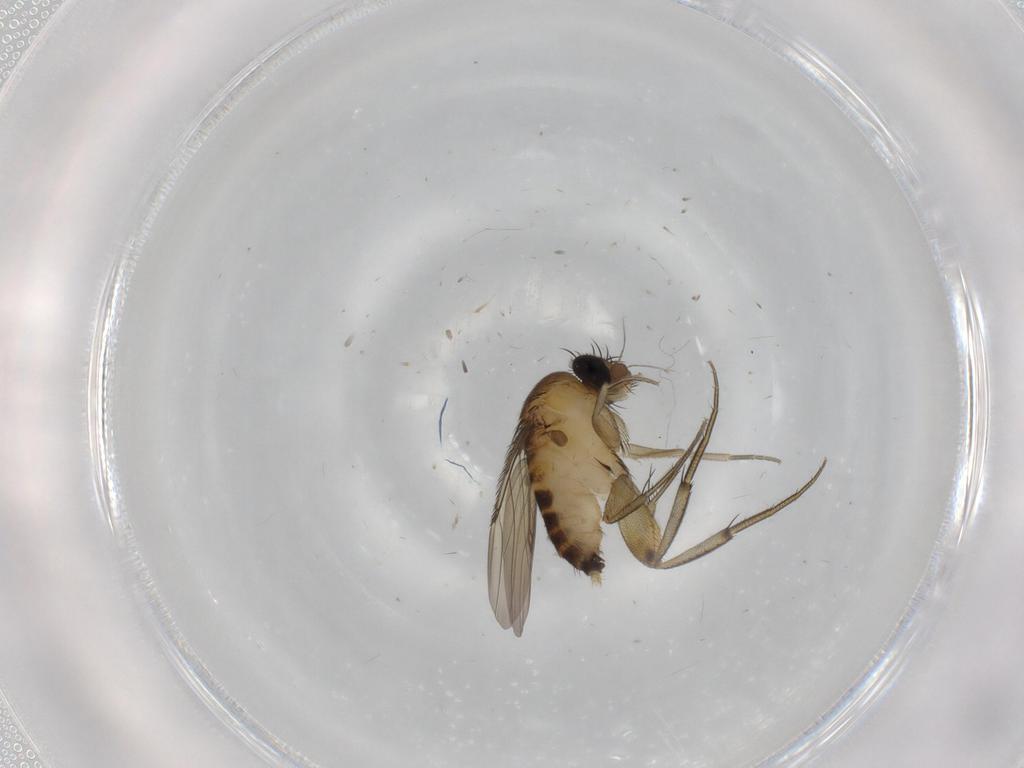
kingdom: Animalia
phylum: Arthropoda
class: Insecta
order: Diptera
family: Phoridae
